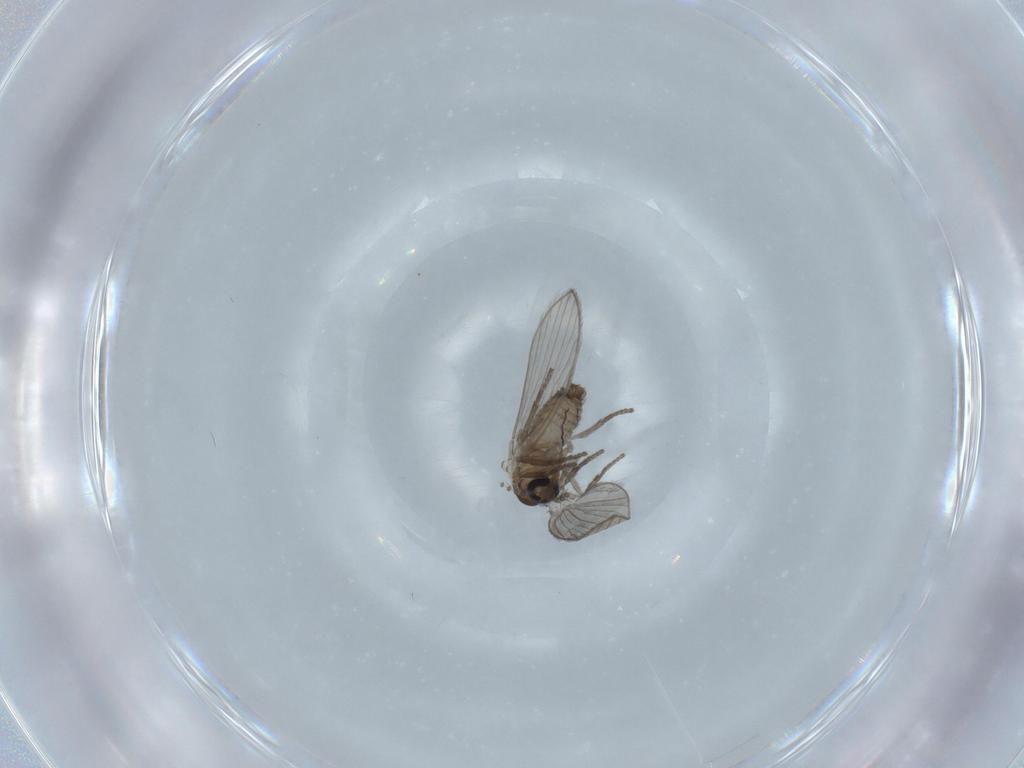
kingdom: Animalia
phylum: Arthropoda
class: Insecta
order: Diptera
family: Psychodidae
